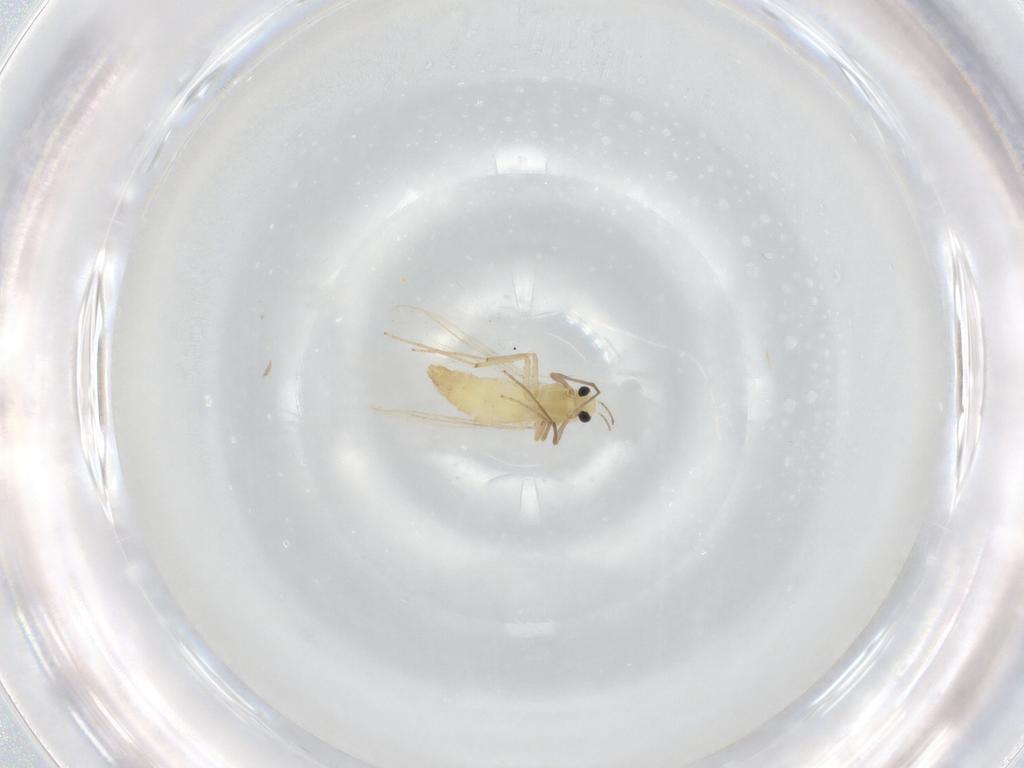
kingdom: Animalia
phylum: Arthropoda
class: Insecta
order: Diptera
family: Chironomidae
